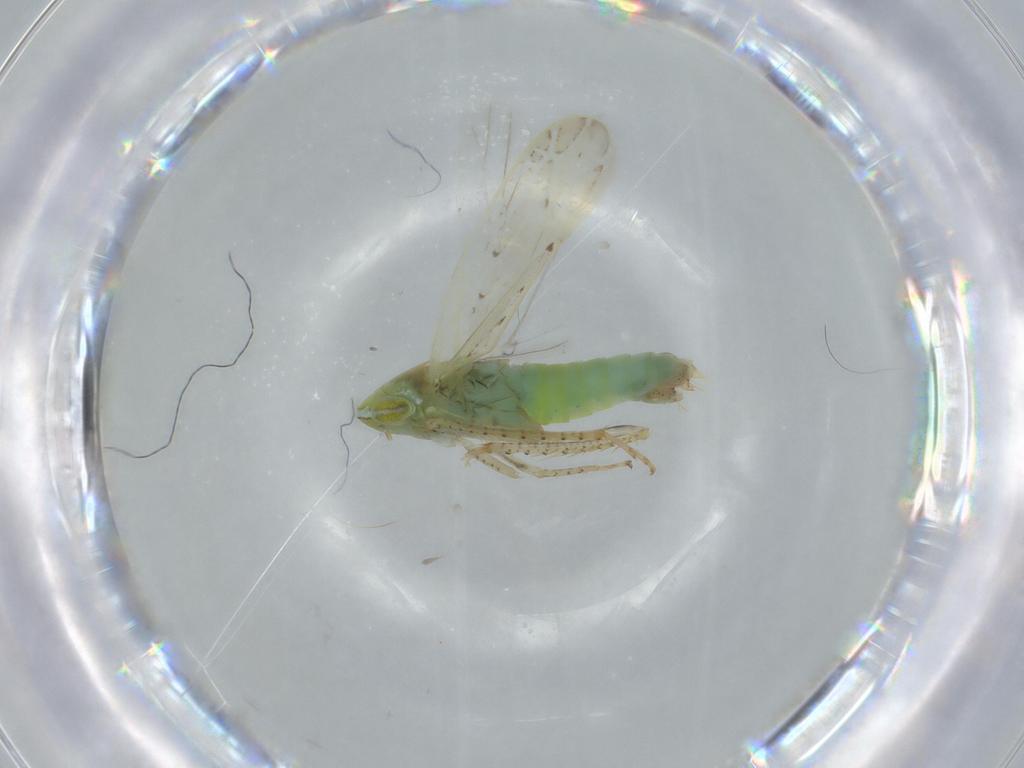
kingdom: Animalia
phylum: Arthropoda
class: Insecta
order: Hemiptera
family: Cicadellidae
